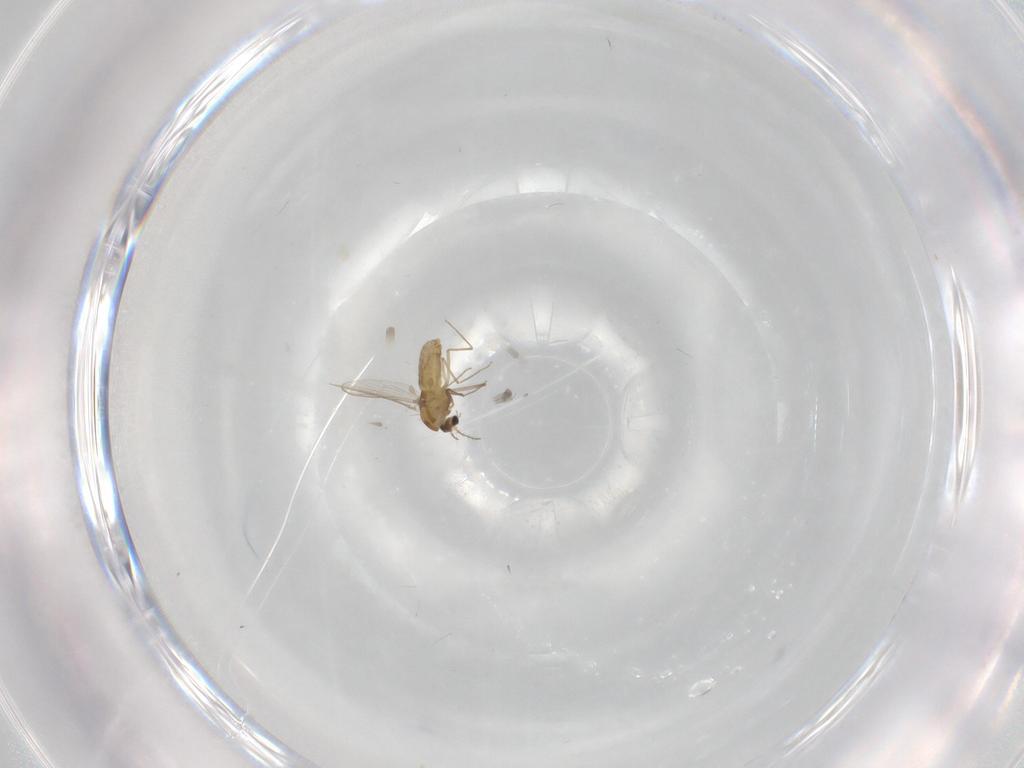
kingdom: Animalia
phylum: Arthropoda
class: Insecta
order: Diptera
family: Chironomidae
